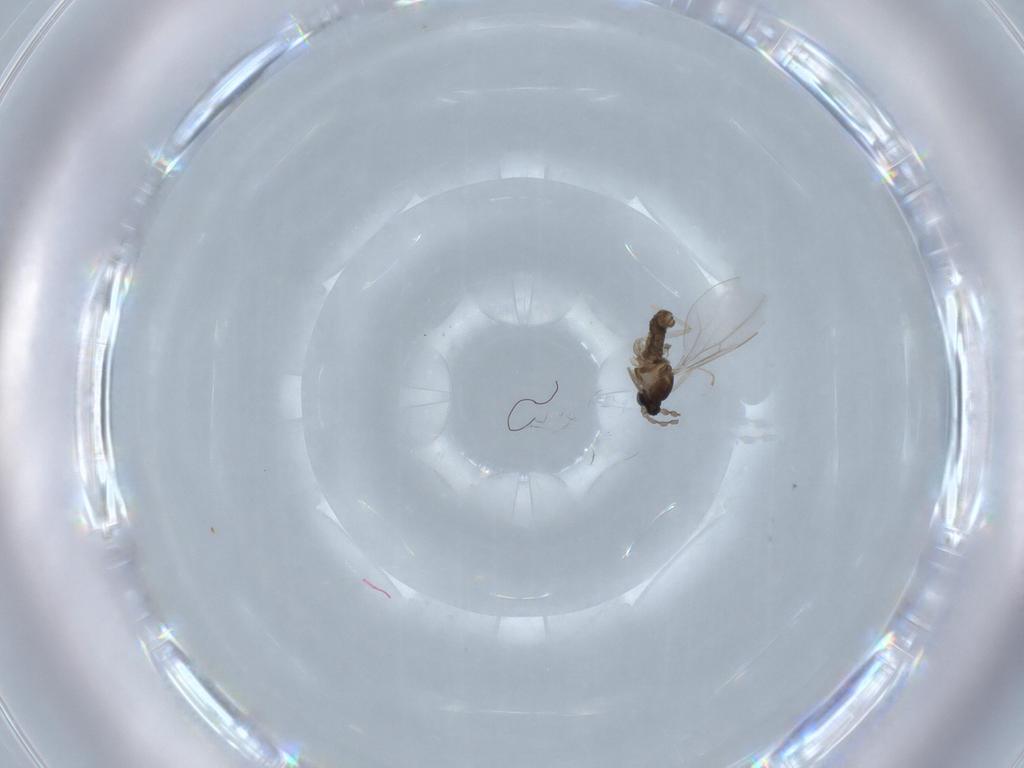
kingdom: Animalia
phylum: Arthropoda
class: Insecta
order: Diptera
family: Cecidomyiidae
